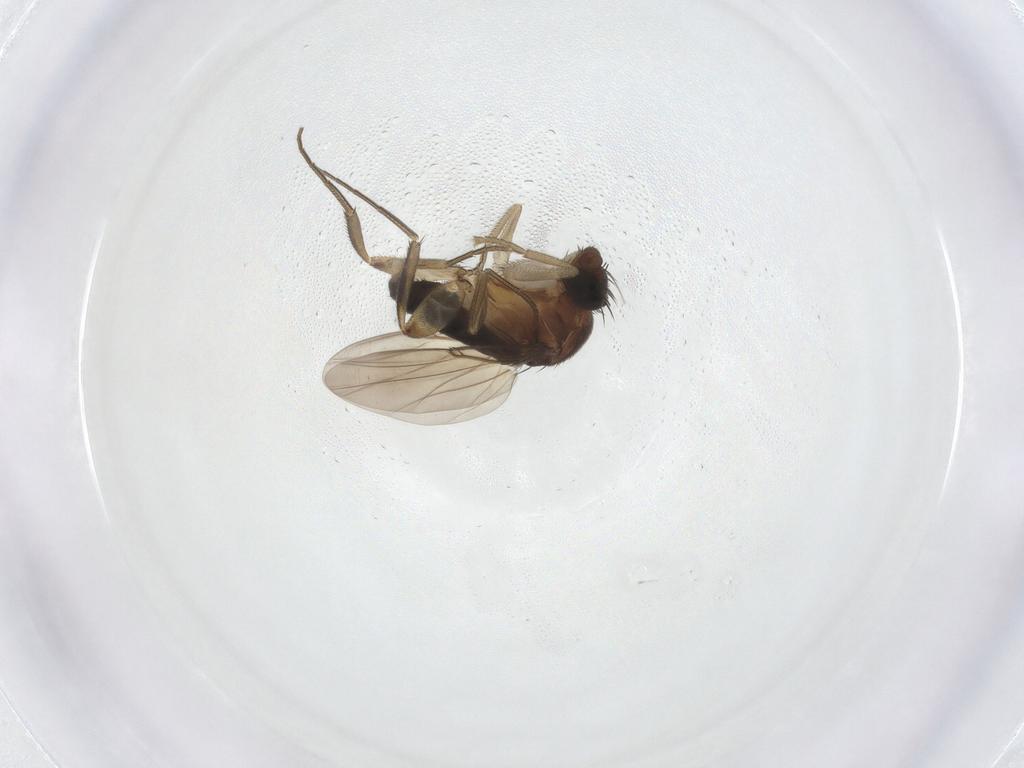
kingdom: Animalia
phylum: Arthropoda
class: Insecta
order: Diptera
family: Phoridae
